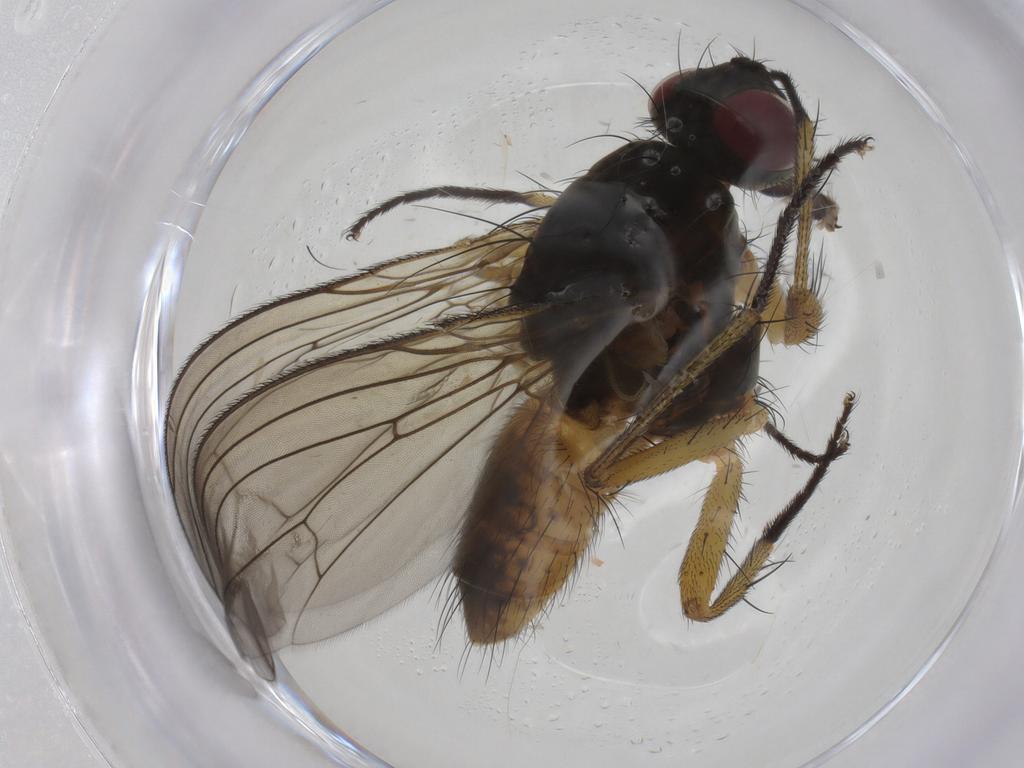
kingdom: Animalia
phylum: Arthropoda
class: Insecta
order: Diptera
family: Muscidae
